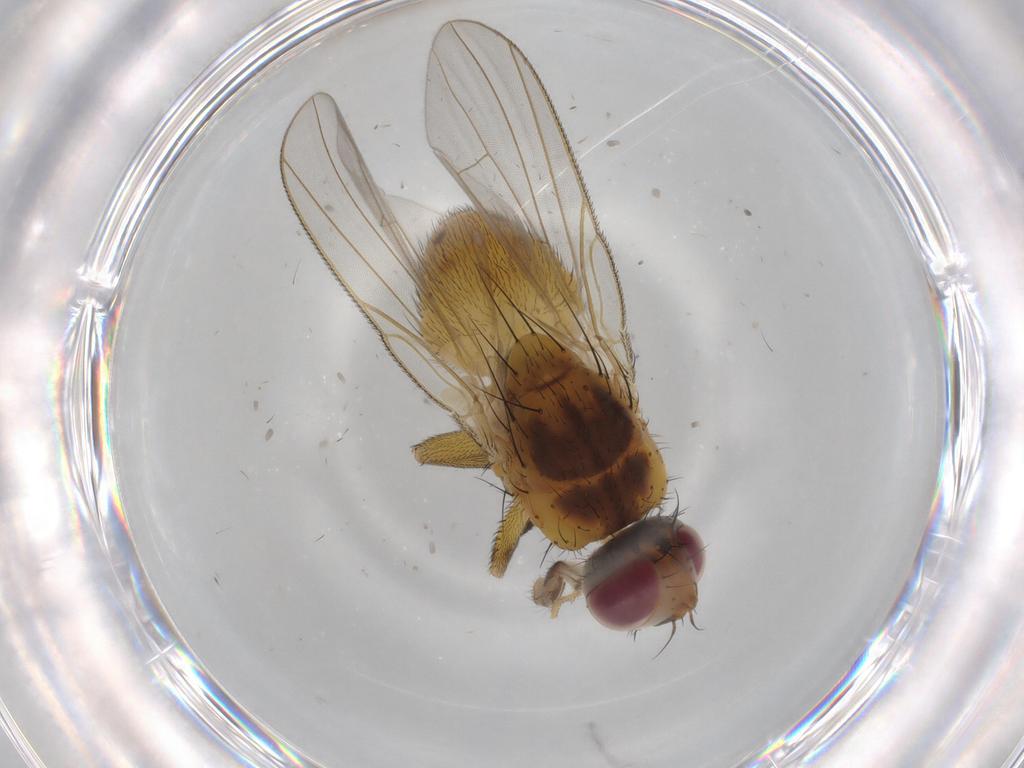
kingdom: Animalia
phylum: Arthropoda
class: Insecta
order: Diptera
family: Muscidae
